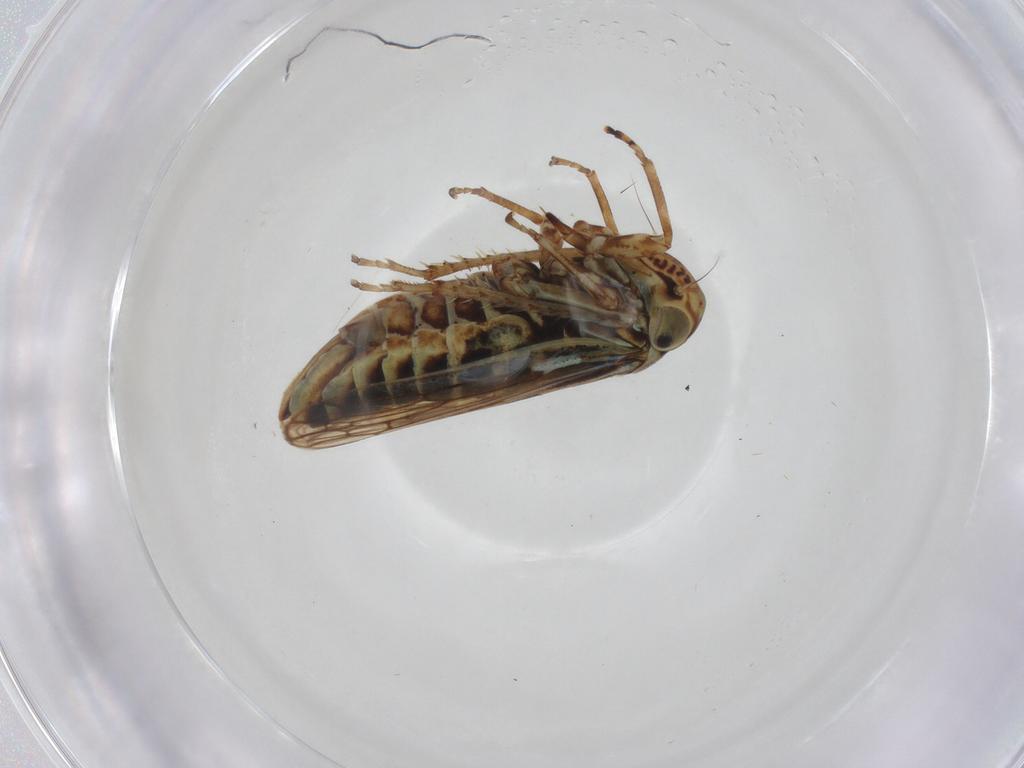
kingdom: Animalia
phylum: Arthropoda
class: Insecta
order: Hemiptera
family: Cicadellidae
